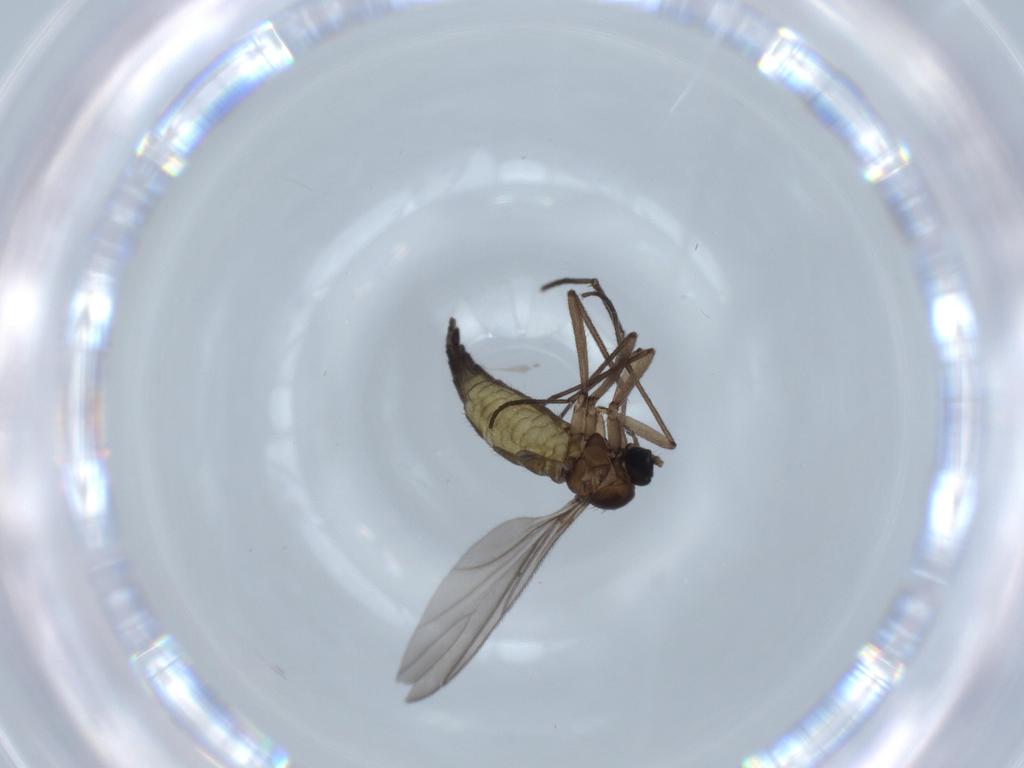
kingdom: Animalia
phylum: Arthropoda
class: Insecta
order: Diptera
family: Sciaridae
